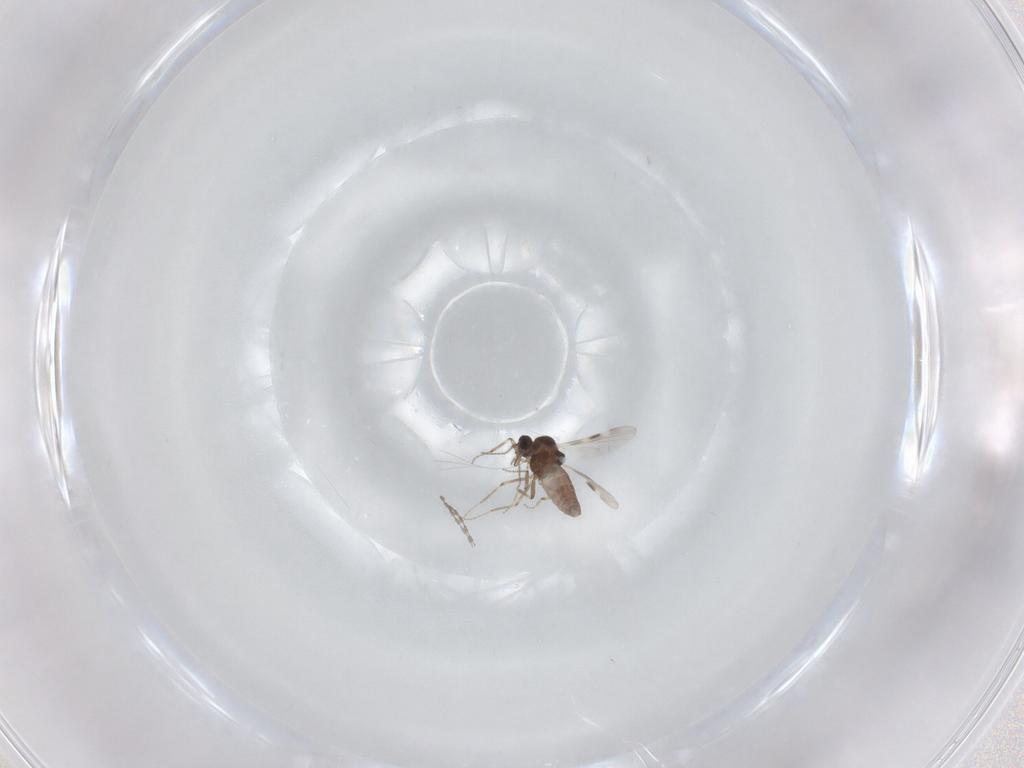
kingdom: Animalia
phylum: Arthropoda
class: Insecta
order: Diptera
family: Cecidomyiidae
